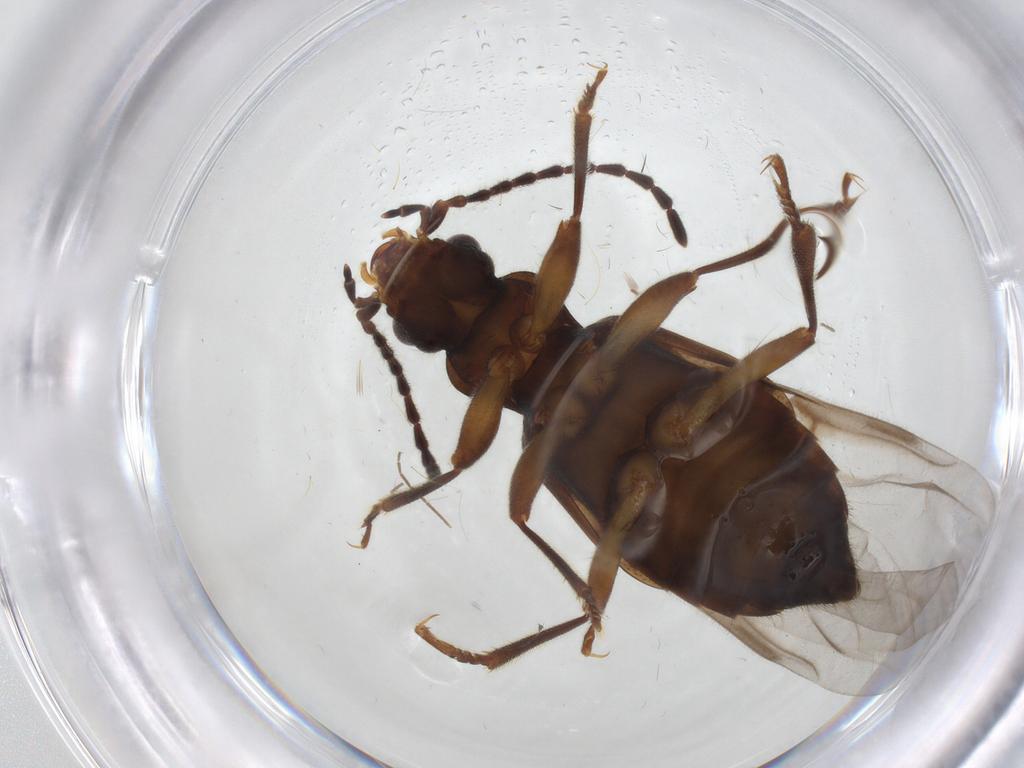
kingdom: Animalia
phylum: Arthropoda
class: Insecta
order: Coleoptera
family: Staphylinidae
